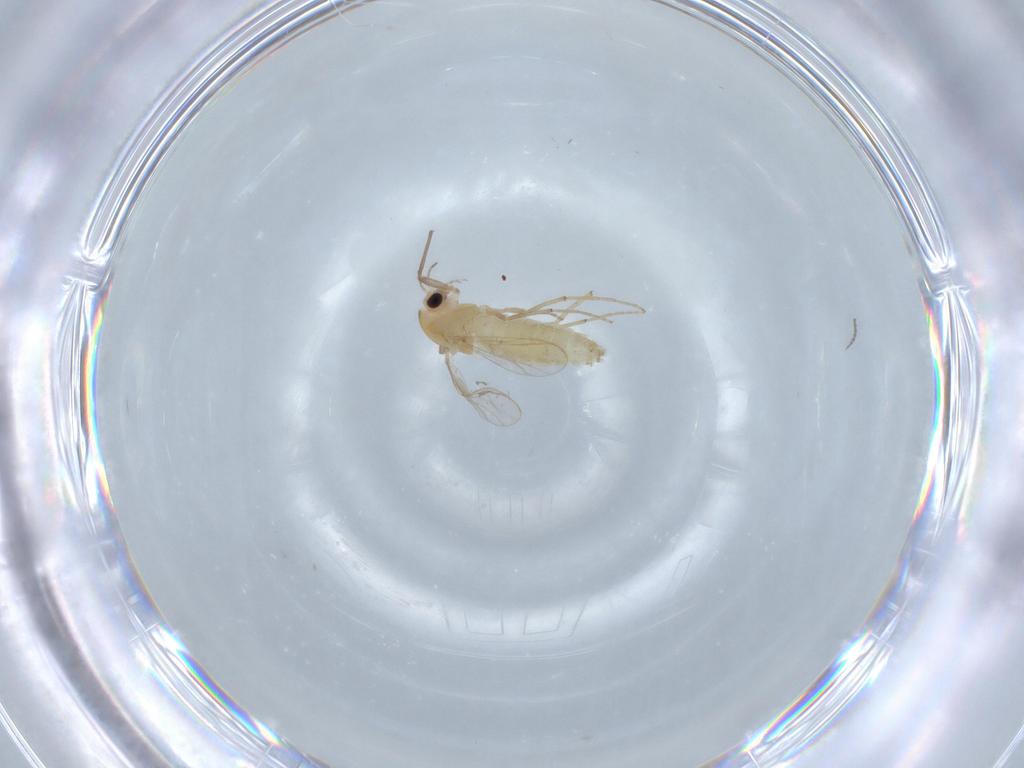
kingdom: Animalia
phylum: Arthropoda
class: Insecta
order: Diptera
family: Chironomidae
